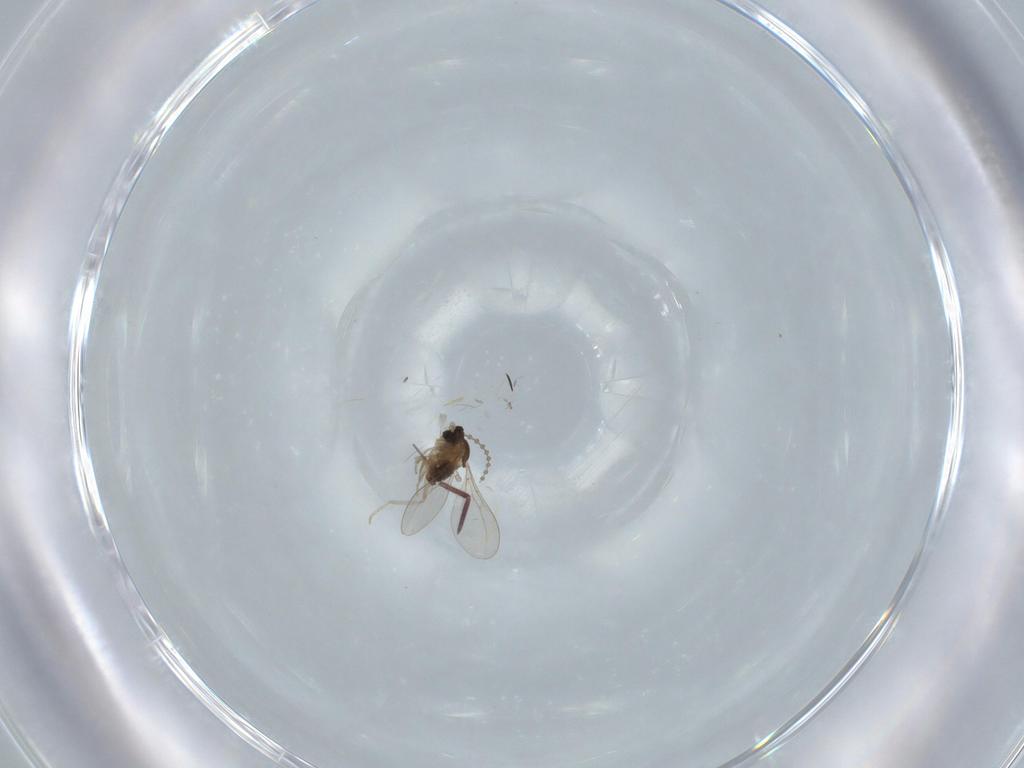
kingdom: Animalia
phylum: Arthropoda
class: Insecta
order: Diptera
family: Cecidomyiidae
